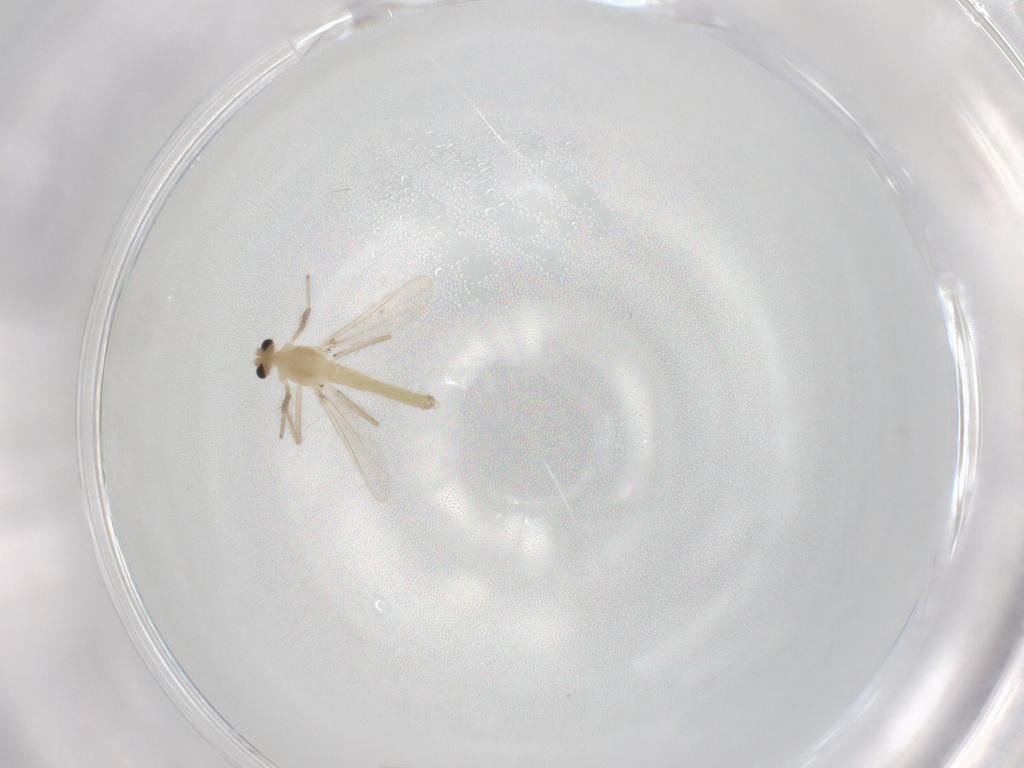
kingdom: Animalia
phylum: Arthropoda
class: Insecta
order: Diptera
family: Chironomidae
